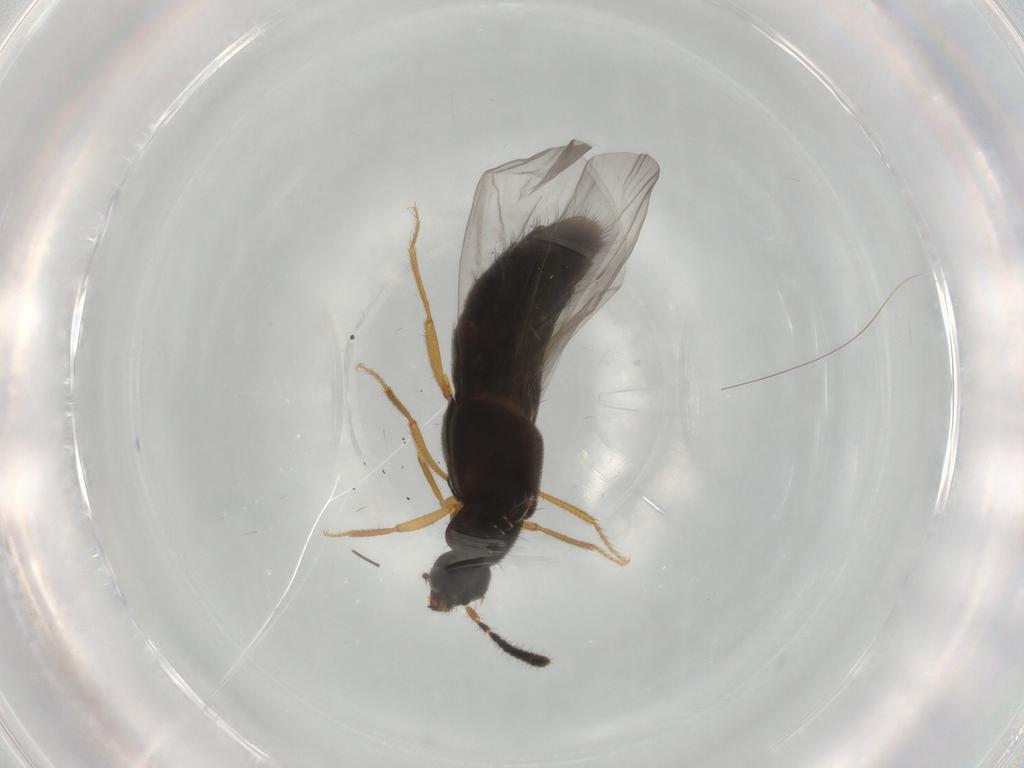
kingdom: Animalia
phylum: Arthropoda
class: Insecta
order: Coleoptera
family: Staphylinidae
